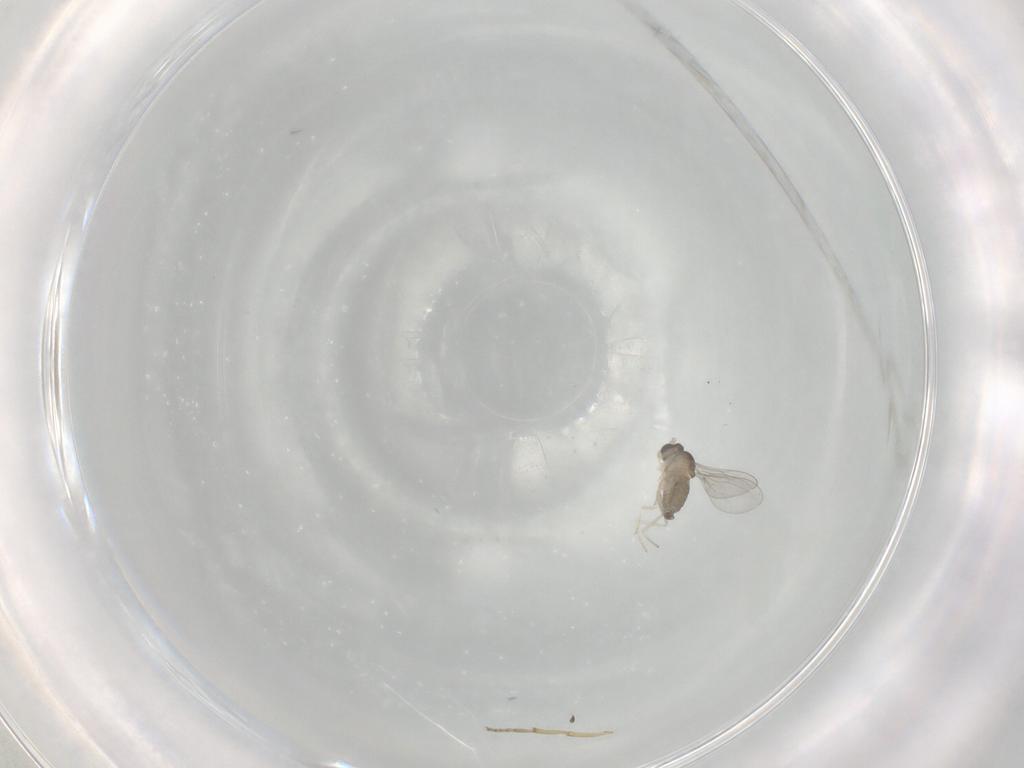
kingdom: Animalia
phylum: Arthropoda
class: Insecta
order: Diptera
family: Cecidomyiidae
